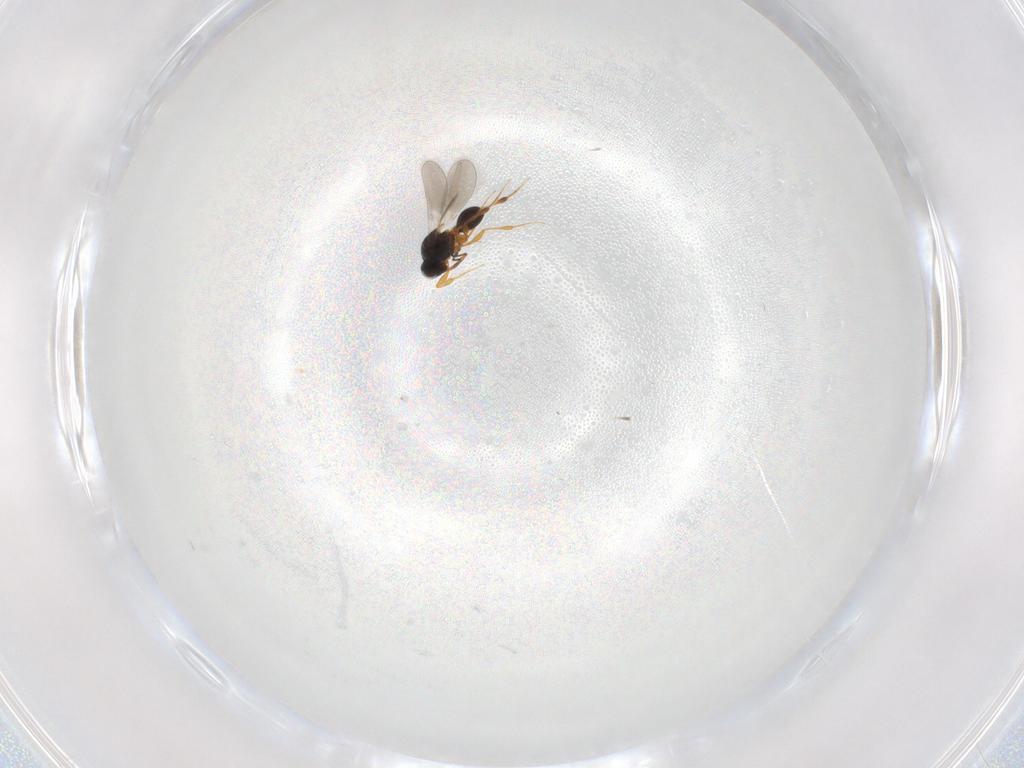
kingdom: Animalia
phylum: Arthropoda
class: Insecta
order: Hymenoptera
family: Platygastridae
